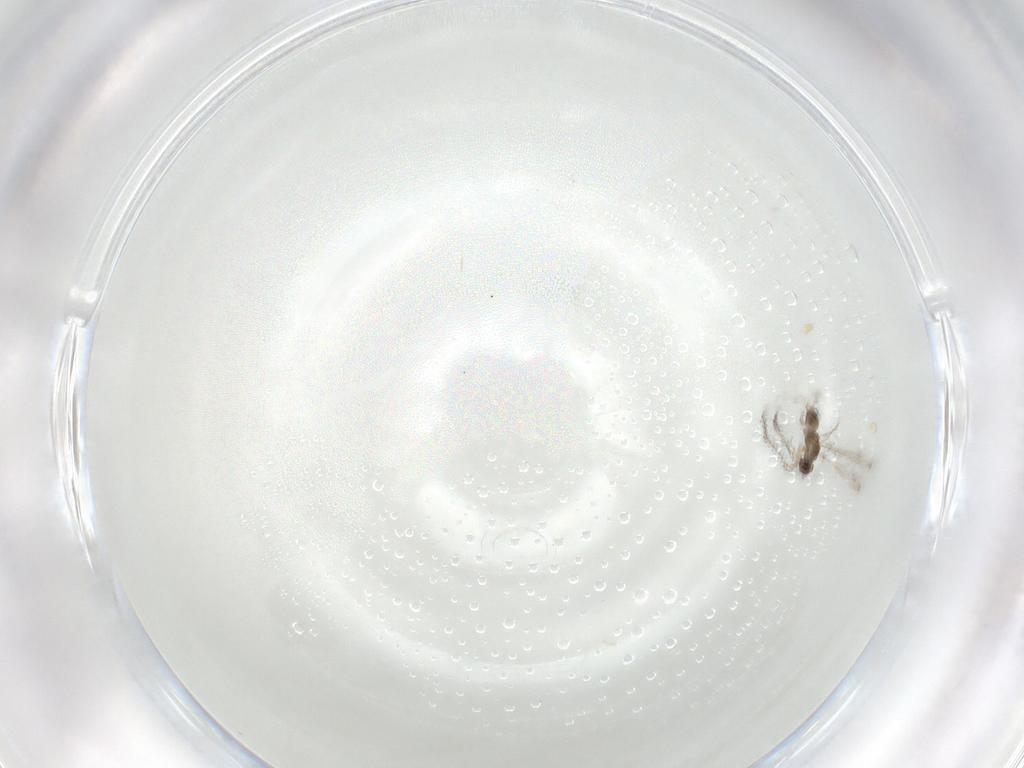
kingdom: Animalia
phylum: Arthropoda
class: Insecta
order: Hymenoptera
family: Mymaridae
